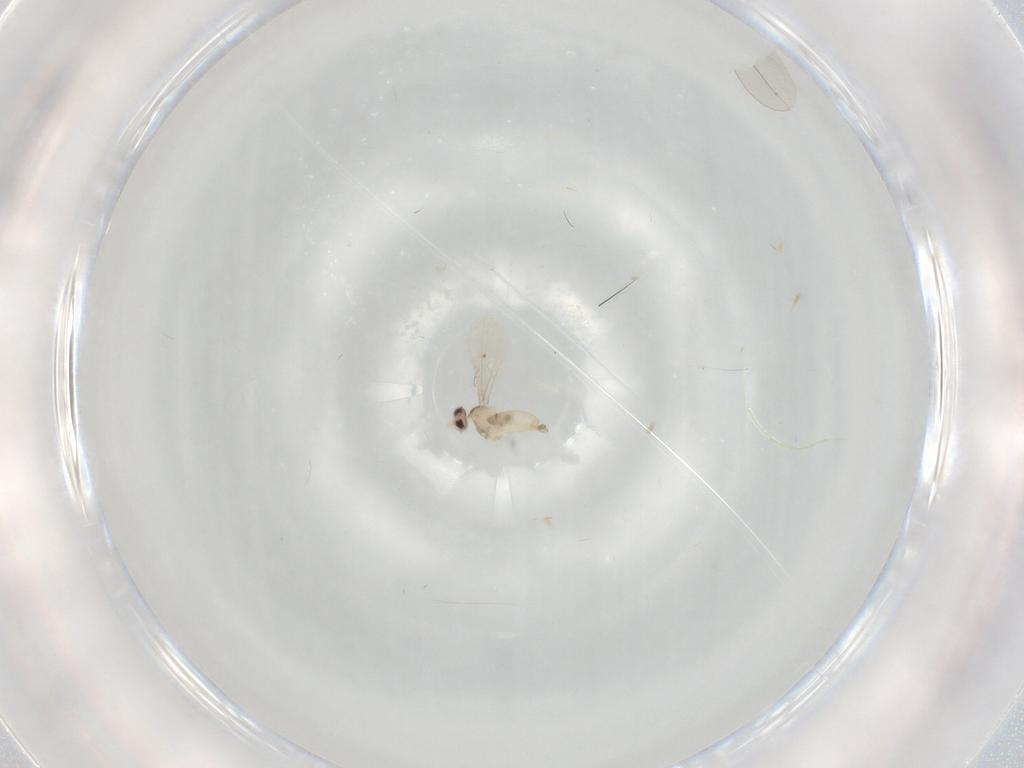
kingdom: Animalia
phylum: Arthropoda
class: Insecta
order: Diptera
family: Cecidomyiidae
